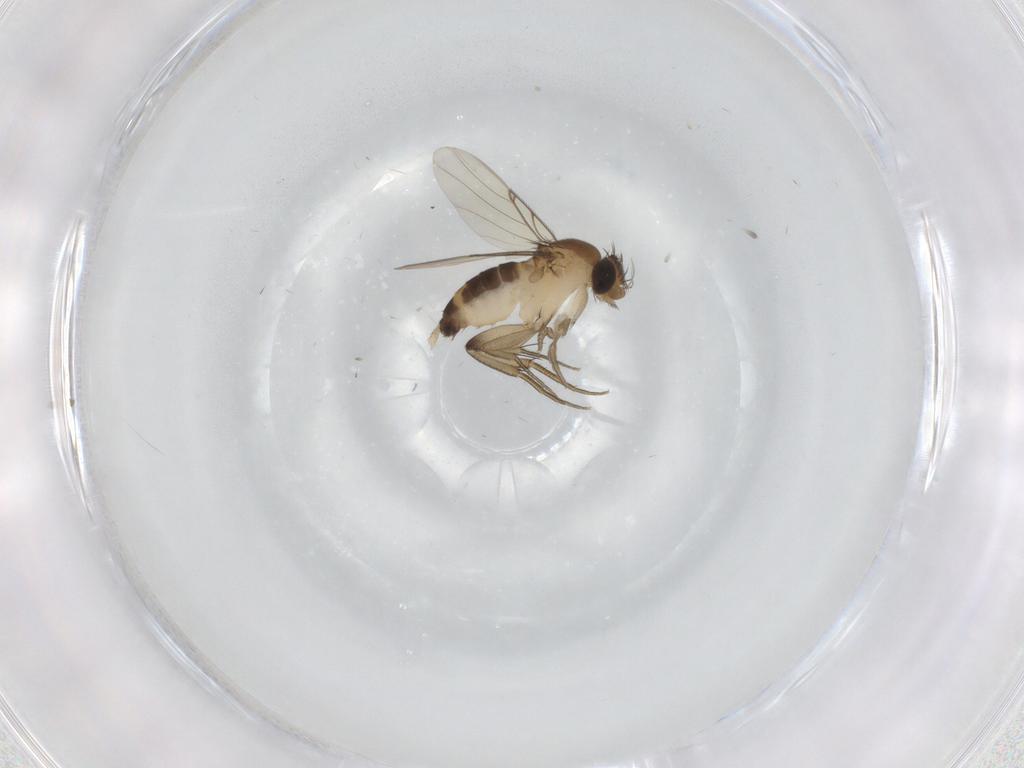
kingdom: Animalia
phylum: Arthropoda
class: Insecta
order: Diptera
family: Phoridae
